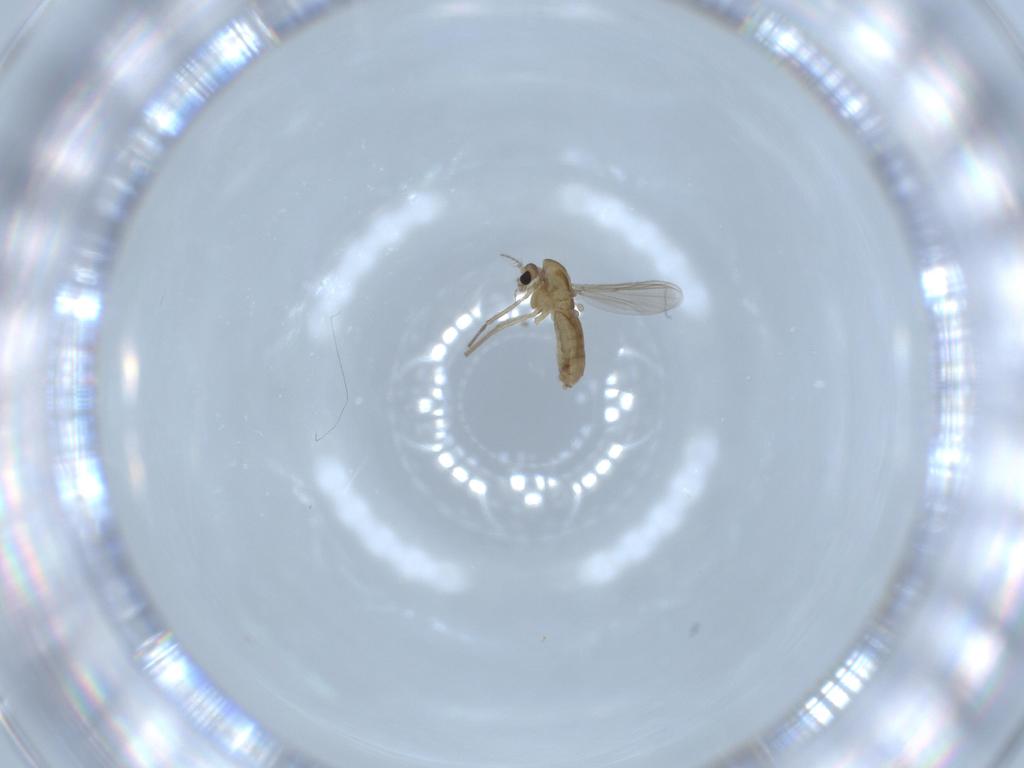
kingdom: Animalia
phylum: Arthropoda
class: Insecta
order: Diptera
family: Chironomidae
